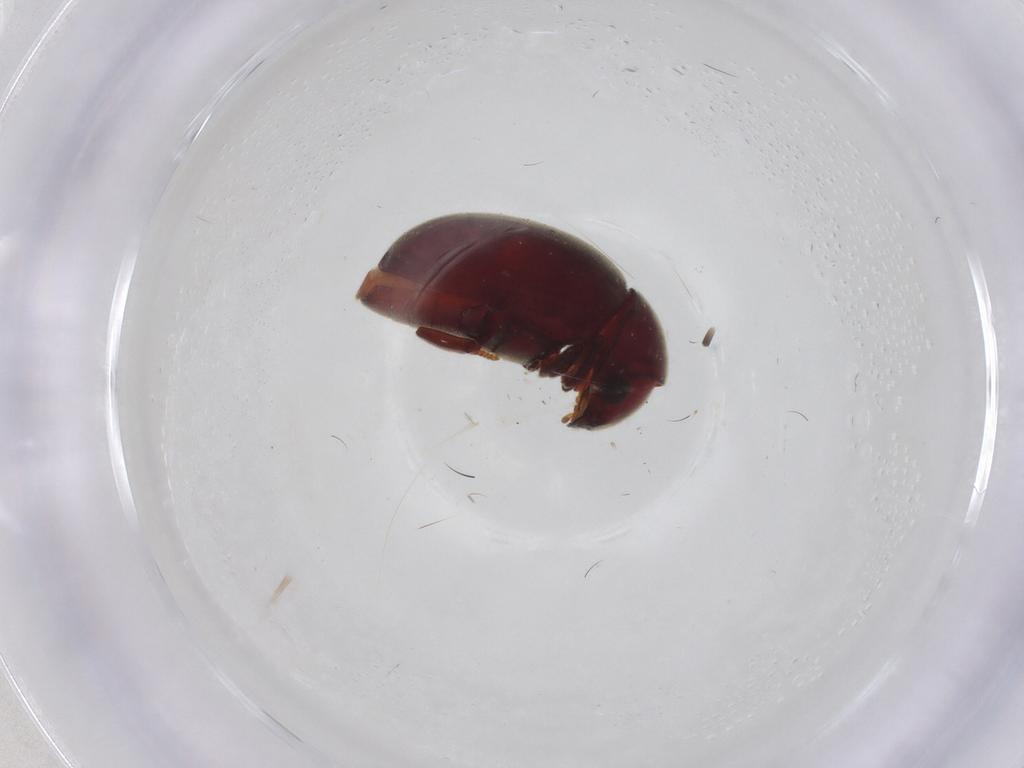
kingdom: Animalia
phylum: Arthropoda
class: Insecta
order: Coleoptera
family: Ptinidae
